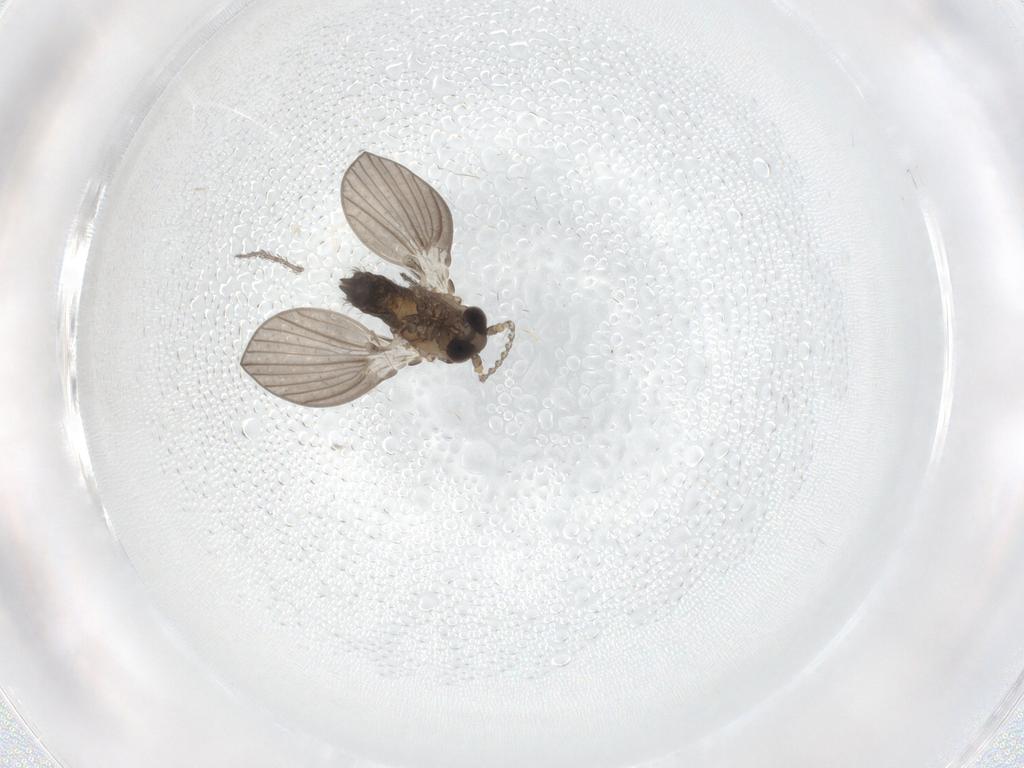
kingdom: Animalia
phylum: Arthropoda
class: Insecta
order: Diptera
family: Psychodidae
